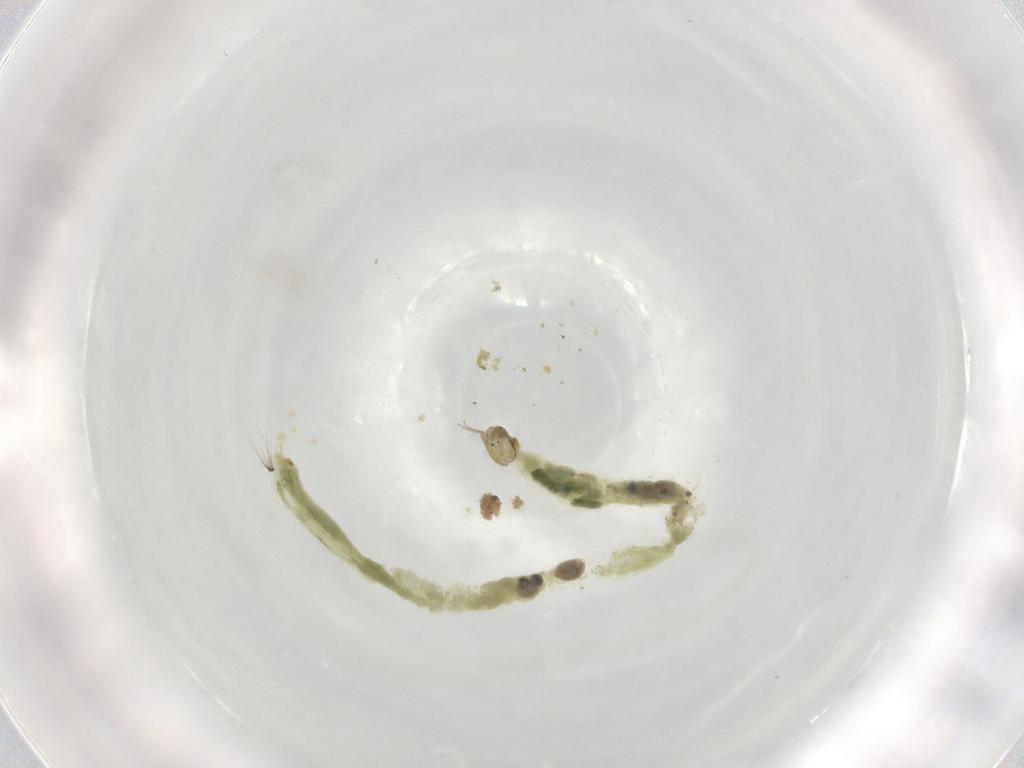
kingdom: Animalia
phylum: Arthropoda
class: Insecta
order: Diptera
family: Chironomidae
